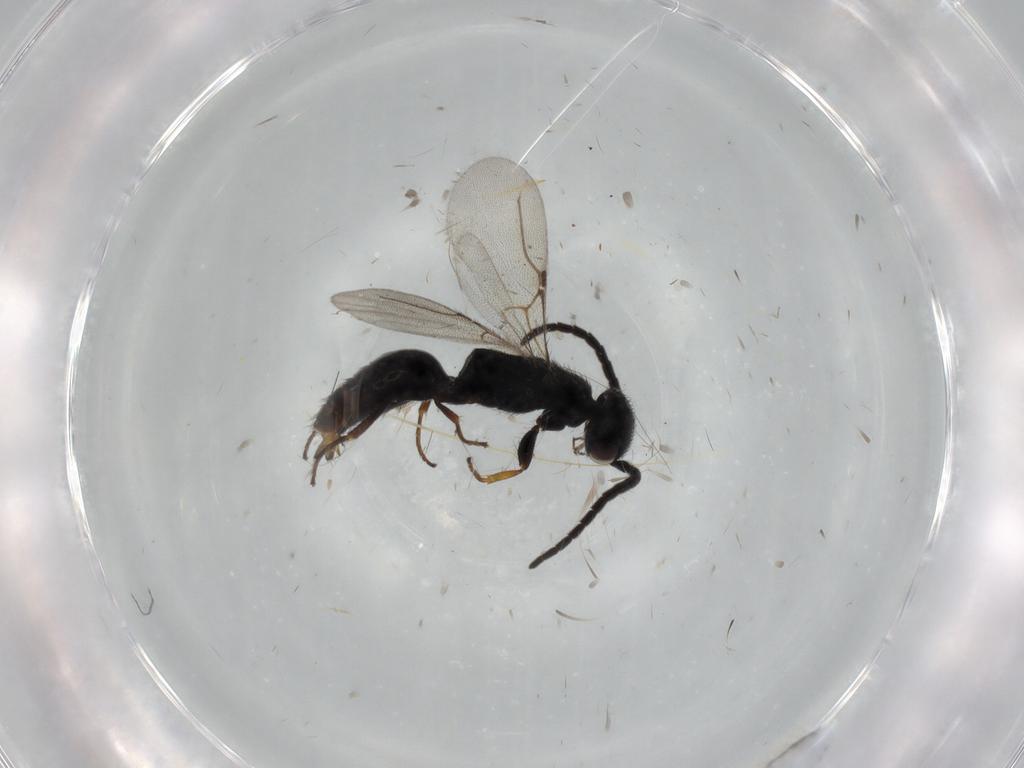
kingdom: Animalia
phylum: Arthropoda
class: Insecta
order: Hymenoptera
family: Bethylidae
